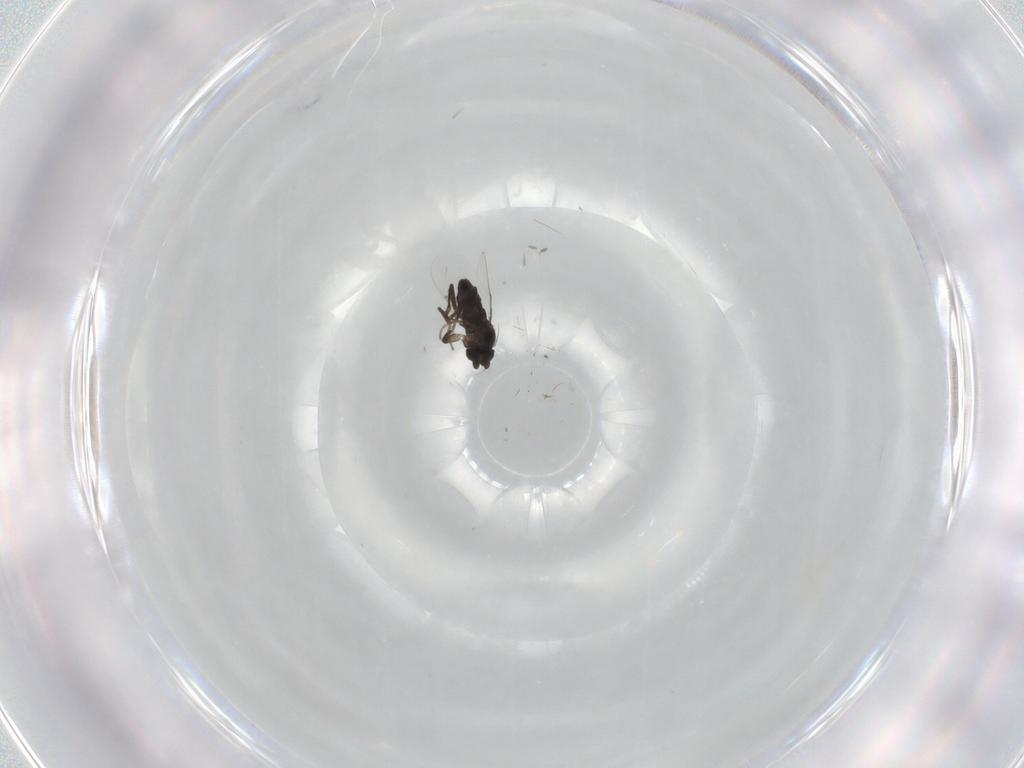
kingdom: Animalia
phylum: Arthropoda
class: Insecta
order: Diptera
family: Phoridae
